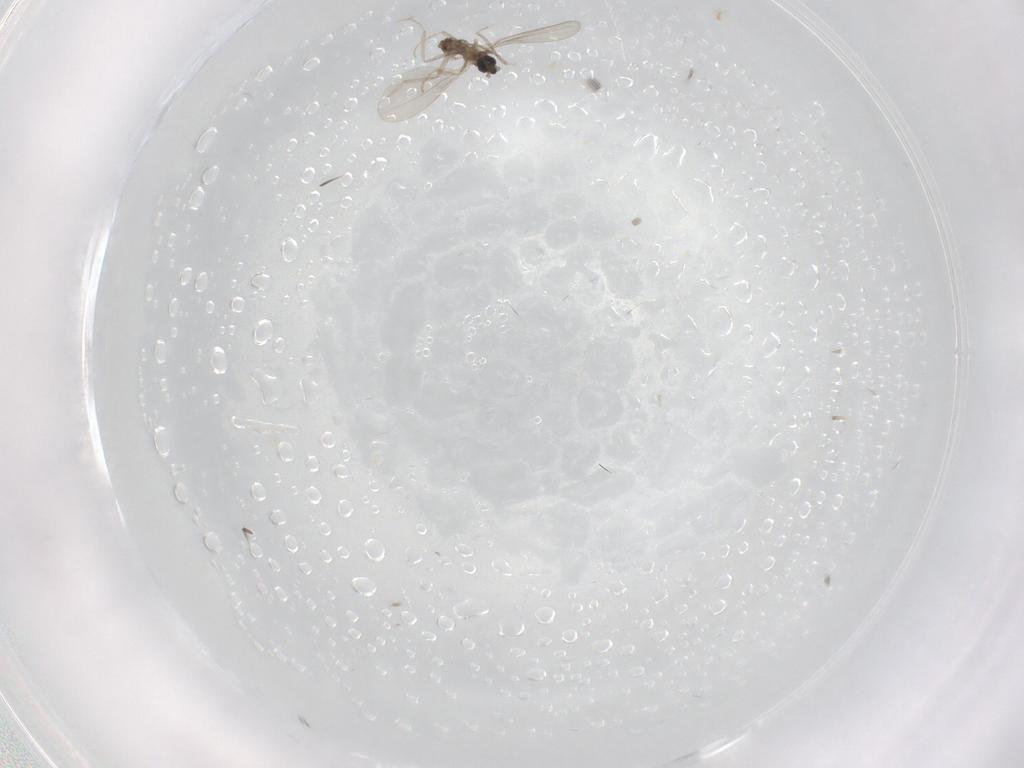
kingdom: Animalia
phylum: Arthropoda
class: Insecta
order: Diptera
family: Cecidomyiidae
